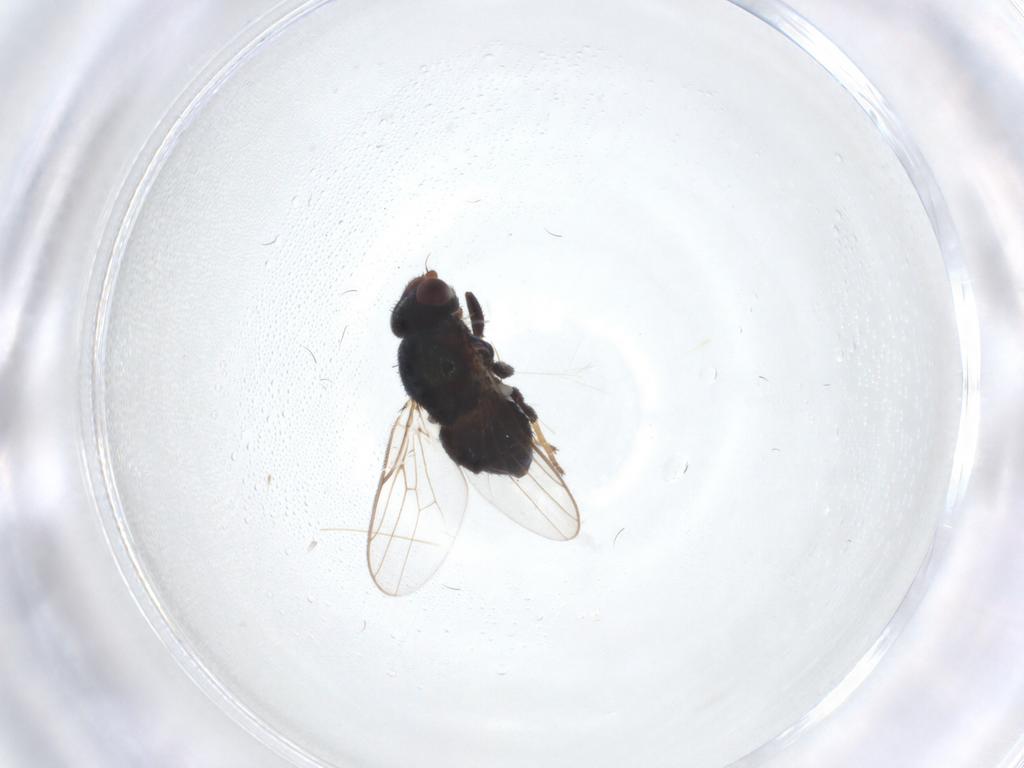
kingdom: Animalia
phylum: Arthropoda
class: Insecta
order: Diptera
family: Chloropidae
